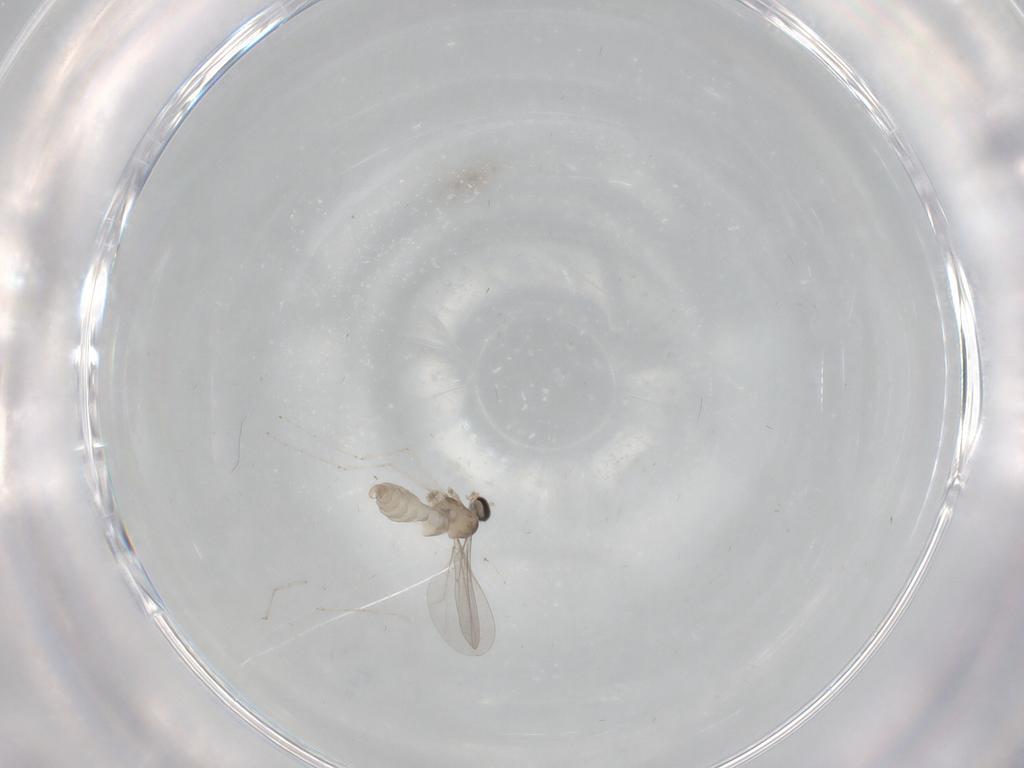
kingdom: Animalia
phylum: Arthropoda
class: Insecta
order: Diptera
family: Cecidomyiidae
